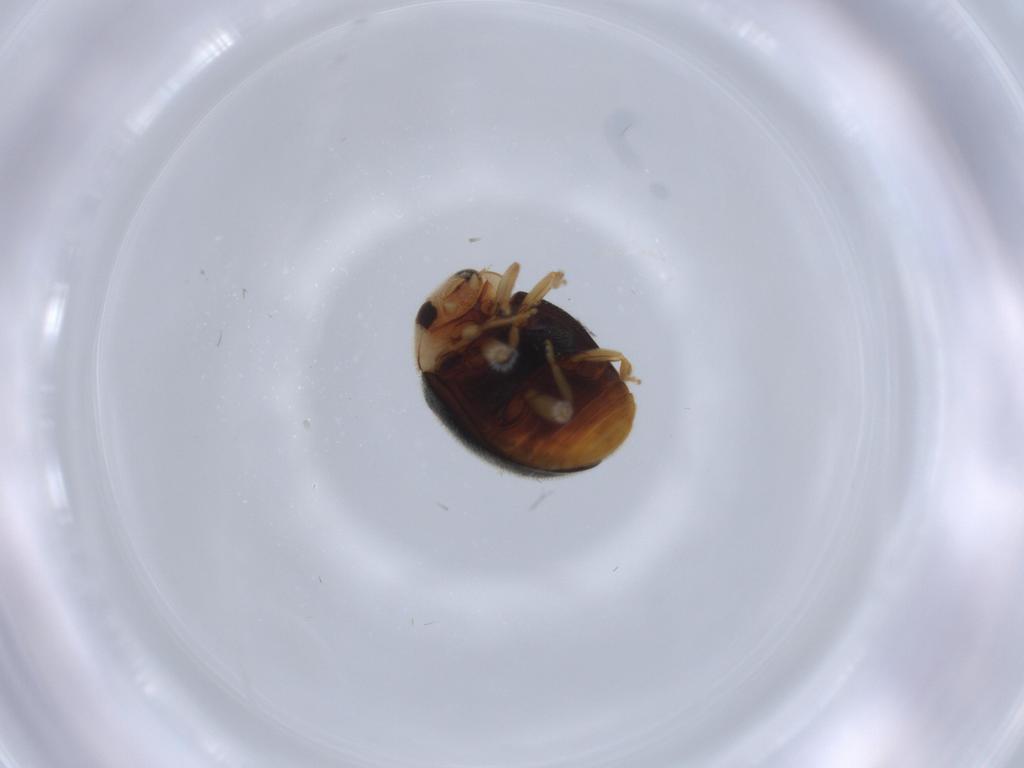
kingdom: Animalia
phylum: Arthropoda
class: Insecta
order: Coleoptera
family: Coccinellidae
